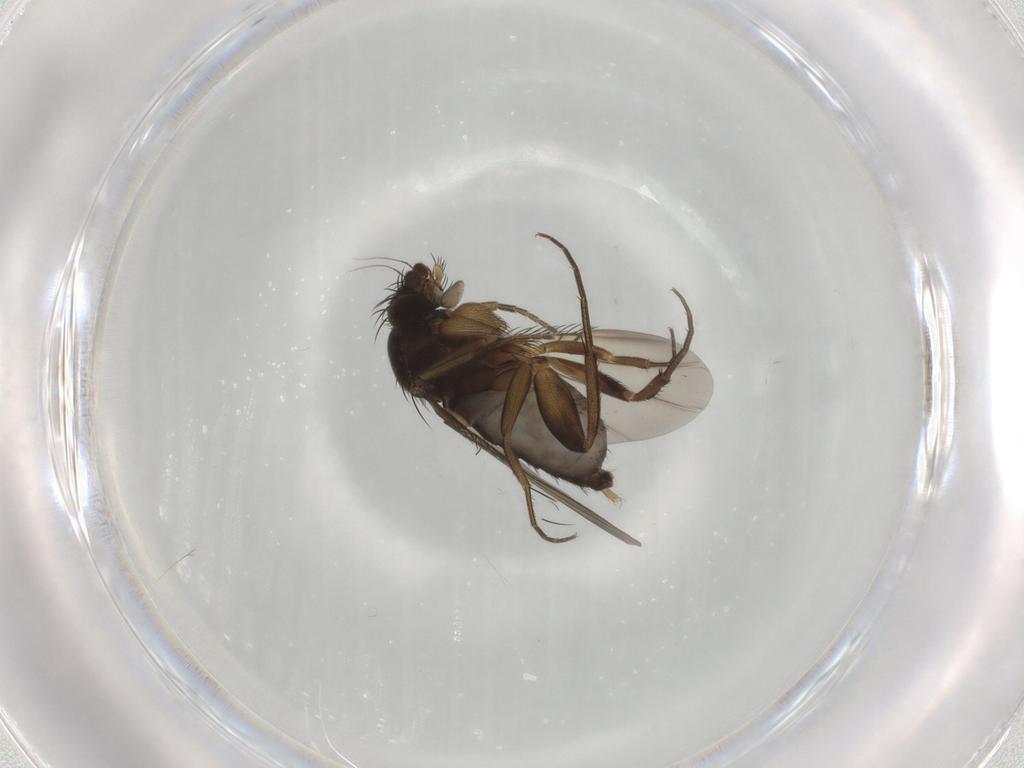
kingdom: Animalia
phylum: Arthropoda
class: Insecta
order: Diptera
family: Phoridae
